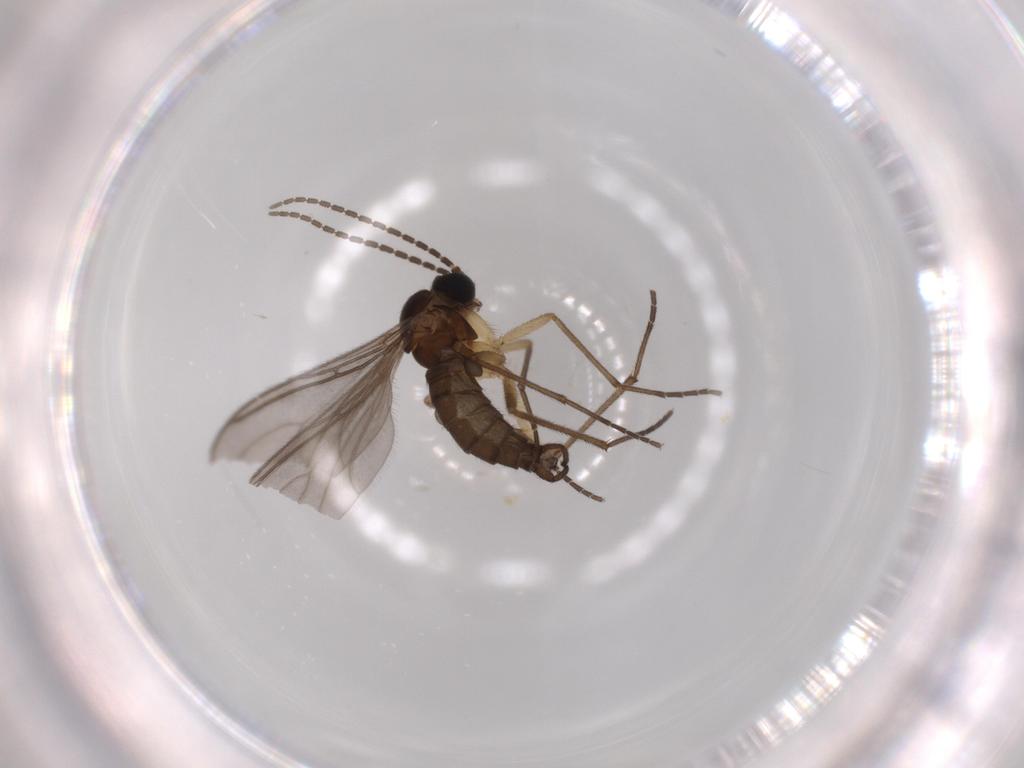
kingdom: Animalia
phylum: Arthropoda
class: Insecta
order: Diptera
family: Sciaridae
